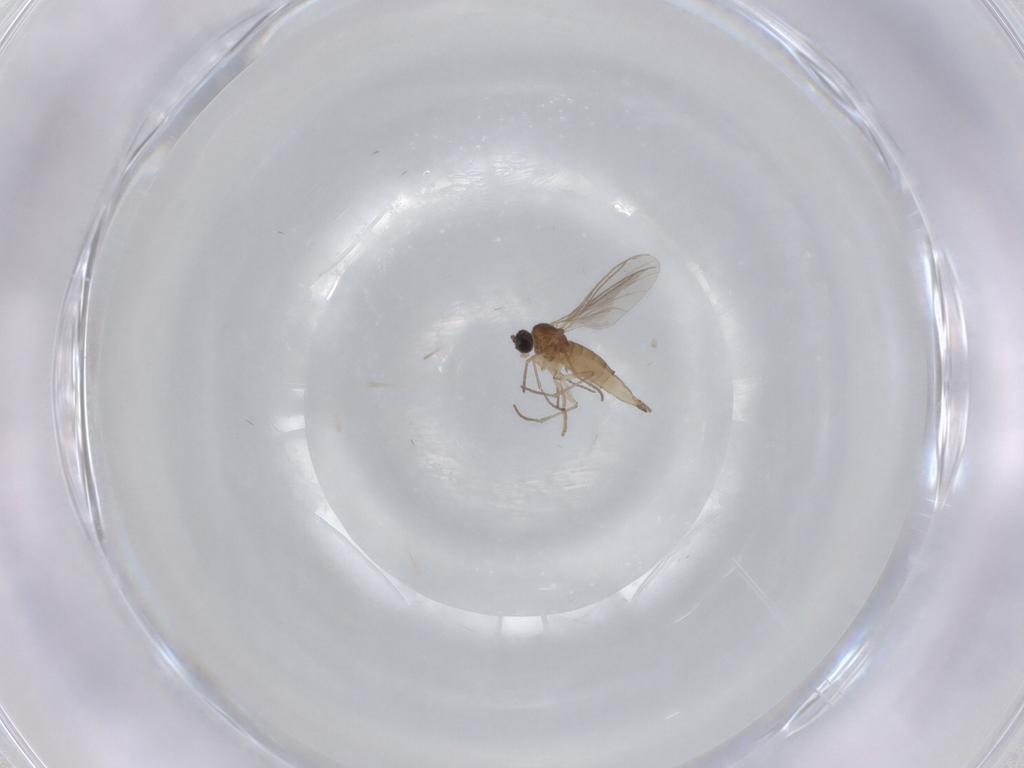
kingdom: Animalia
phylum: Arthropoda
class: Insecta
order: Diptera
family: Sciaridae
